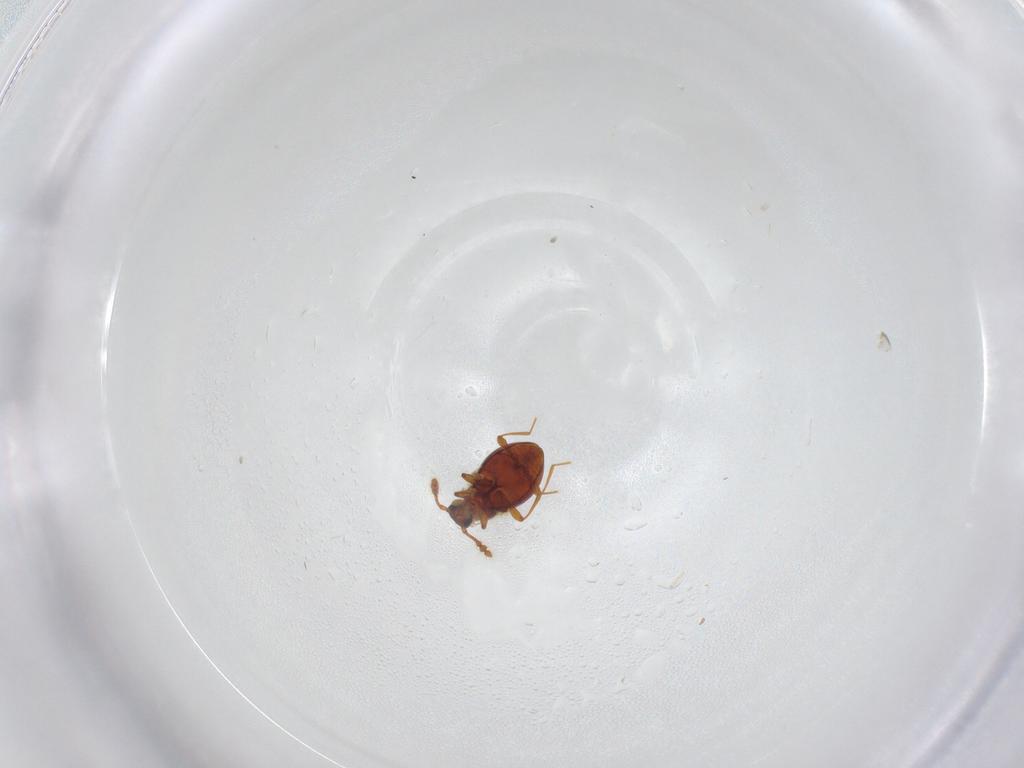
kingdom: Animalia
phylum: Arthropoda
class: Insecta
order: Coleoptera
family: Staphylinidae
